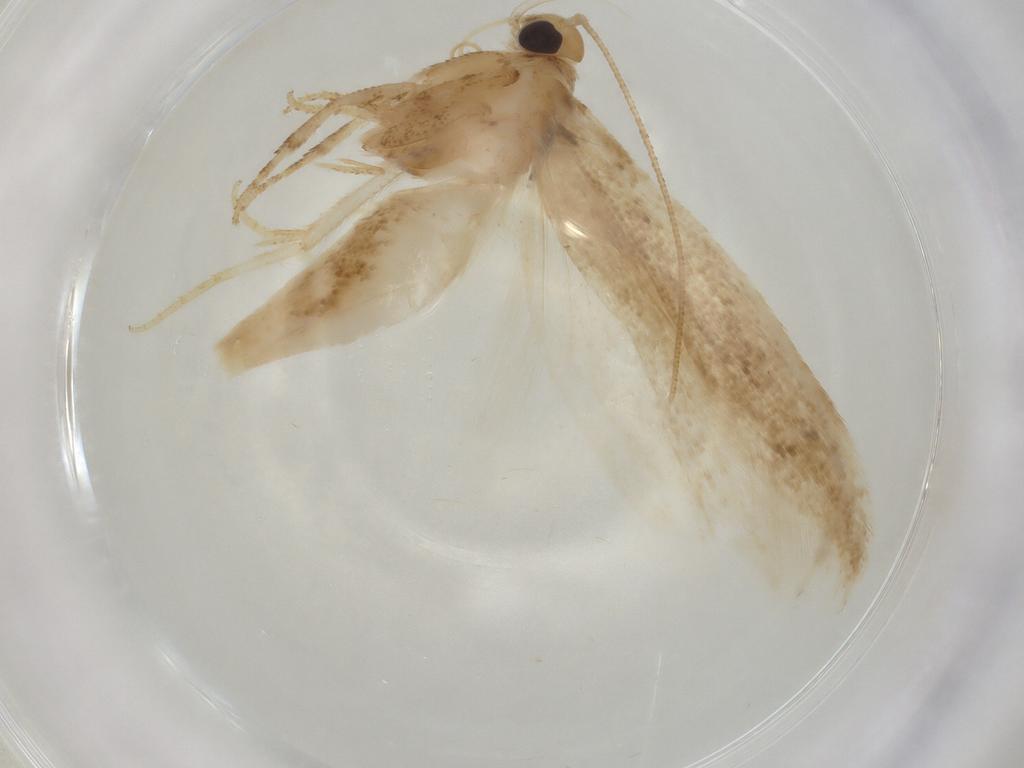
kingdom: Animalia
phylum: Arthropoda
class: Insecta
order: Lepidoptera
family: Gelechiidae
